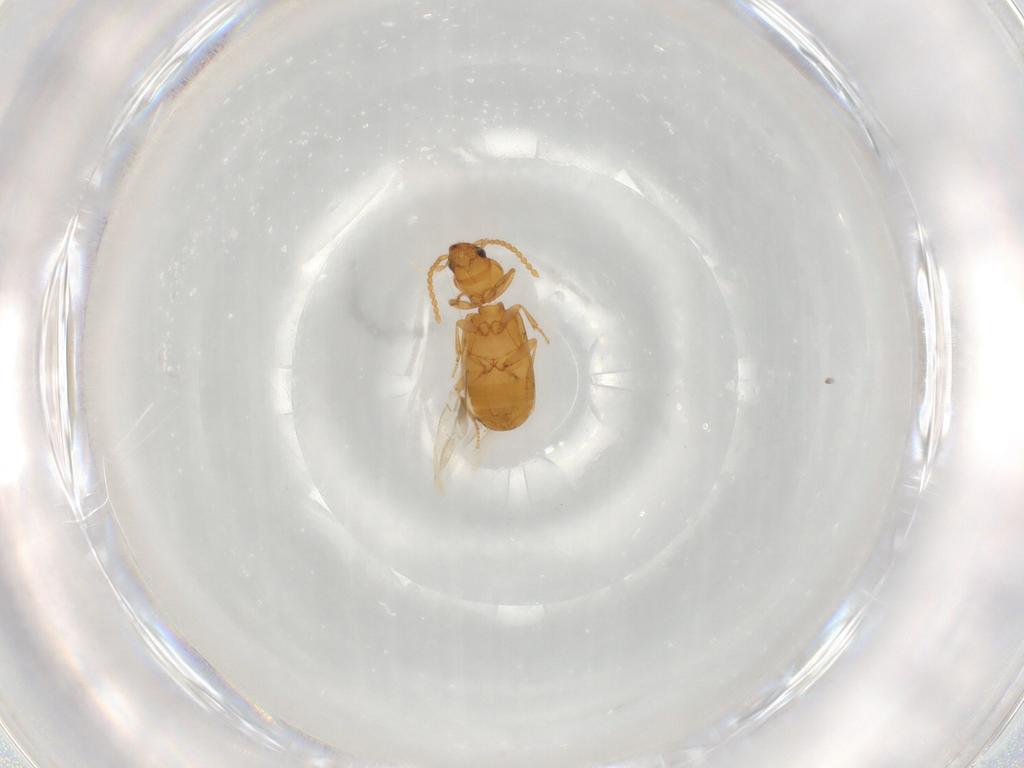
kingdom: Animalia
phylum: Arthropoda
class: Insecta
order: Coleoptera
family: Carabidae
